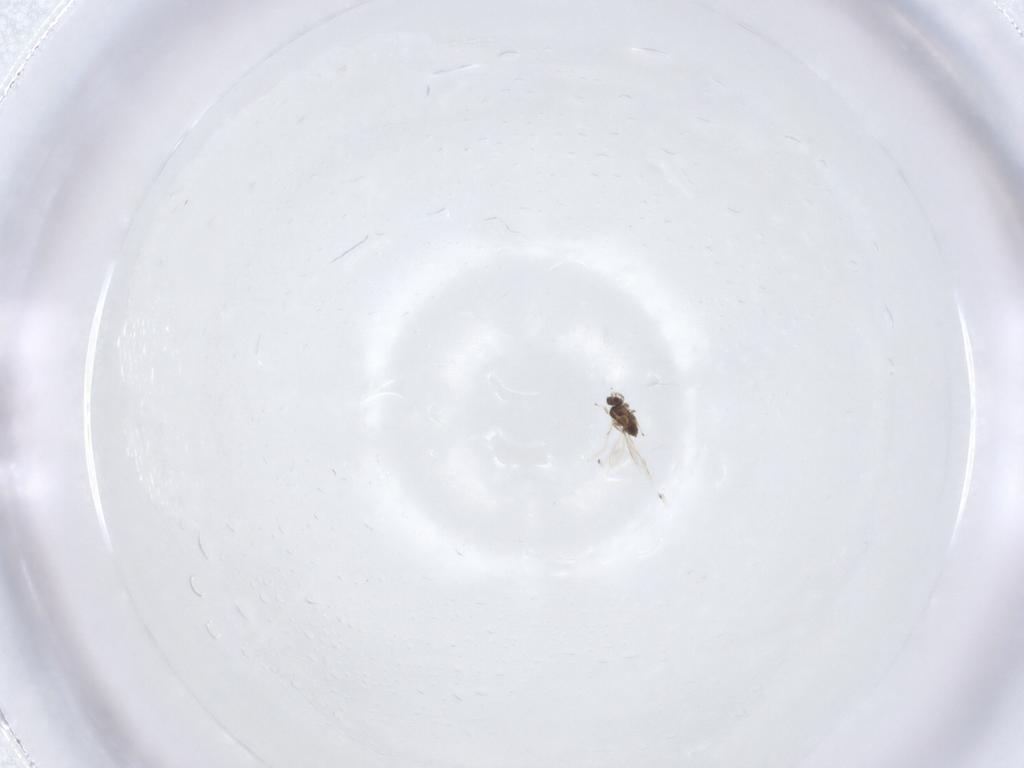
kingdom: Animalia
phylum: Arthropoda
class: Insecta
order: Hymenoptera
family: Mymaridae
